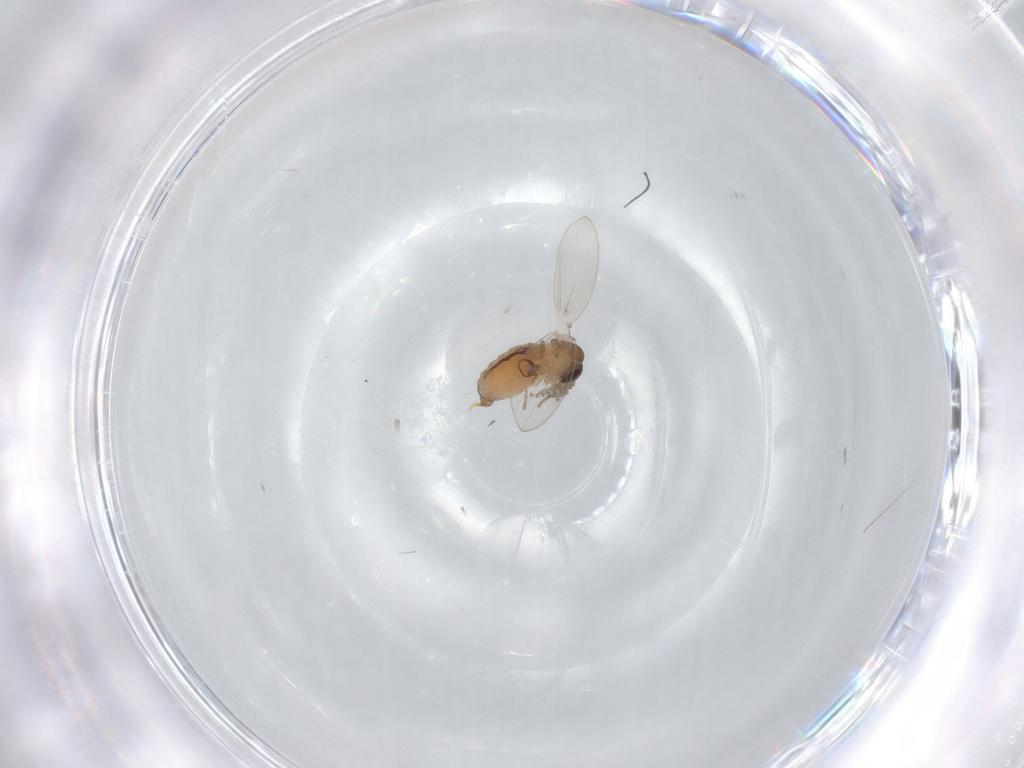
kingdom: Animalia
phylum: Arthropoda
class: Insecta
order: Diptera
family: Psychodidae
